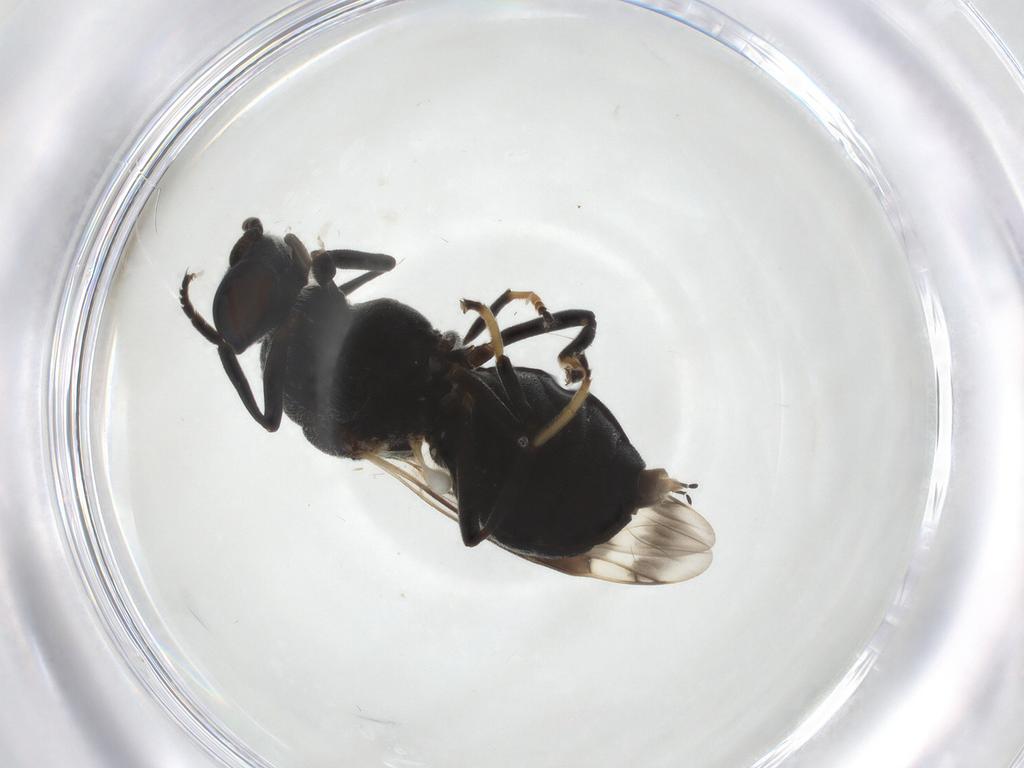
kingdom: Animalia
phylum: Arthropoda
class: Insecta
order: Diptera
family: Stratiomyidae
